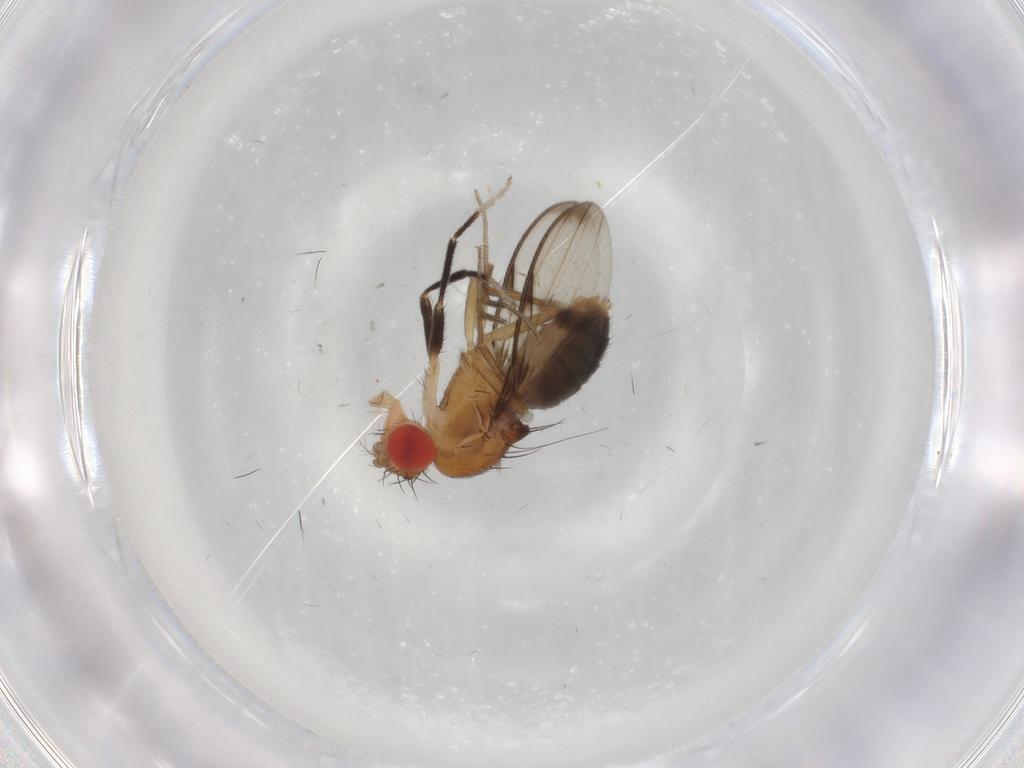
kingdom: Animalia
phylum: Arthropoda
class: Insecta
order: Diptera
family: Drosophilidae
